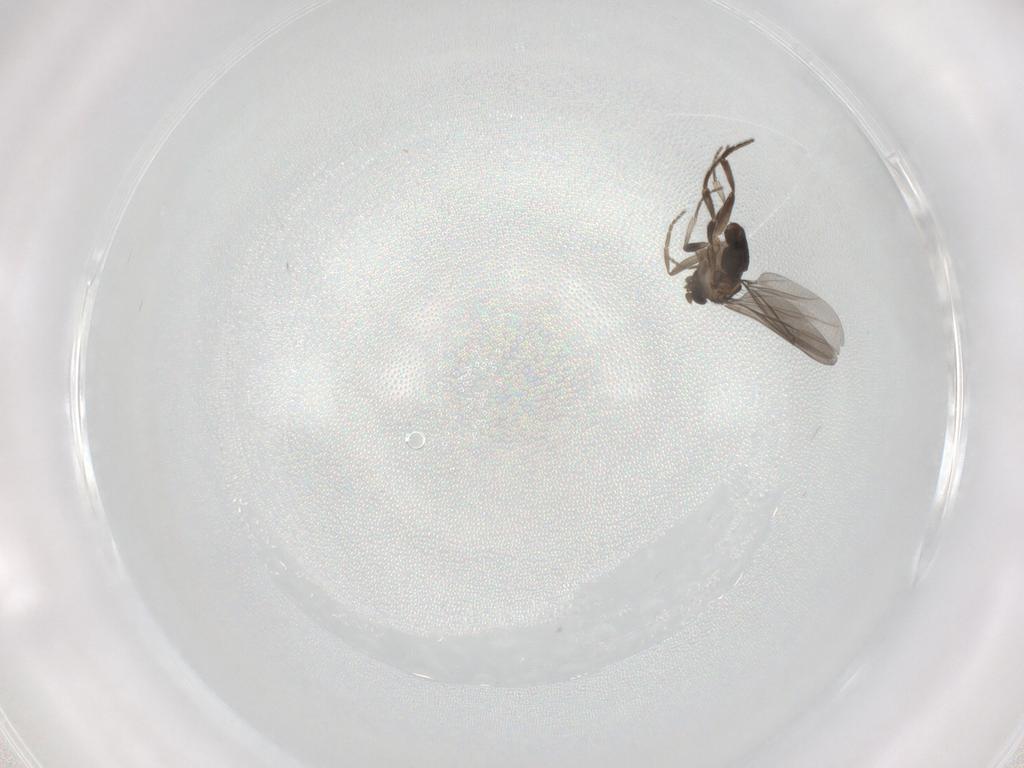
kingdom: Animalia
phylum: Arthropoda
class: Insecta
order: Diptera
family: Phoridae
